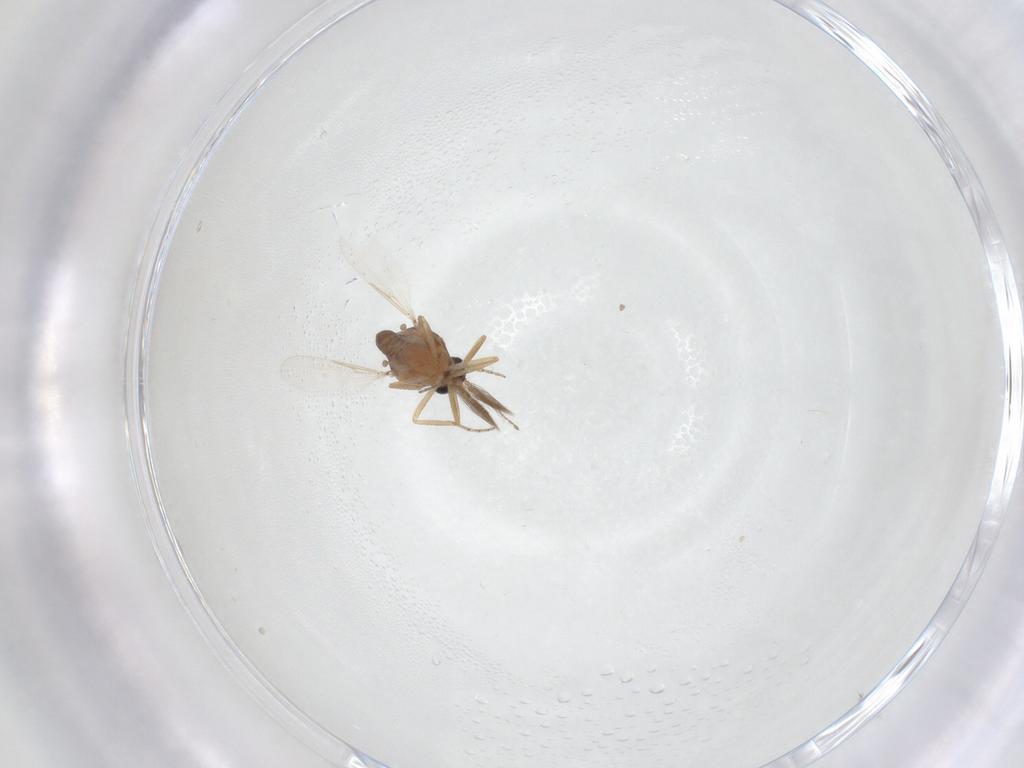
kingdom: Animalia
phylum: Arthropoda
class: Insecta
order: Diptera
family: Ceratopogonidae
